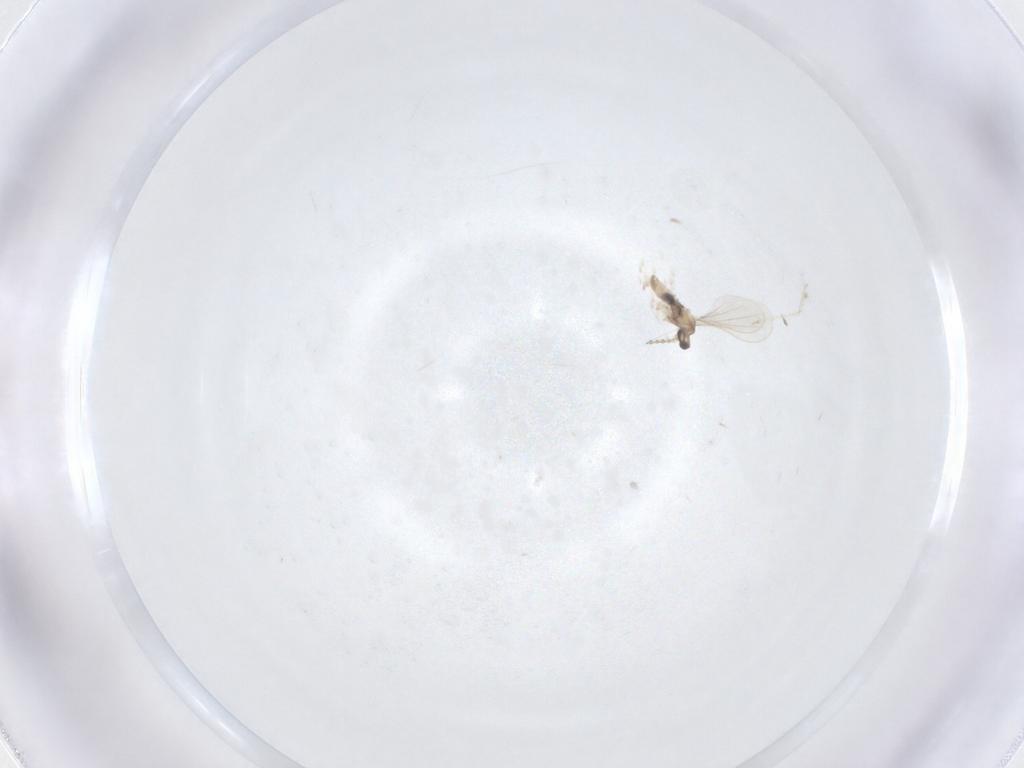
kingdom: Animalia
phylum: Arthropoda
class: Insecta
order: Diptera
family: Cecidomyiidae
